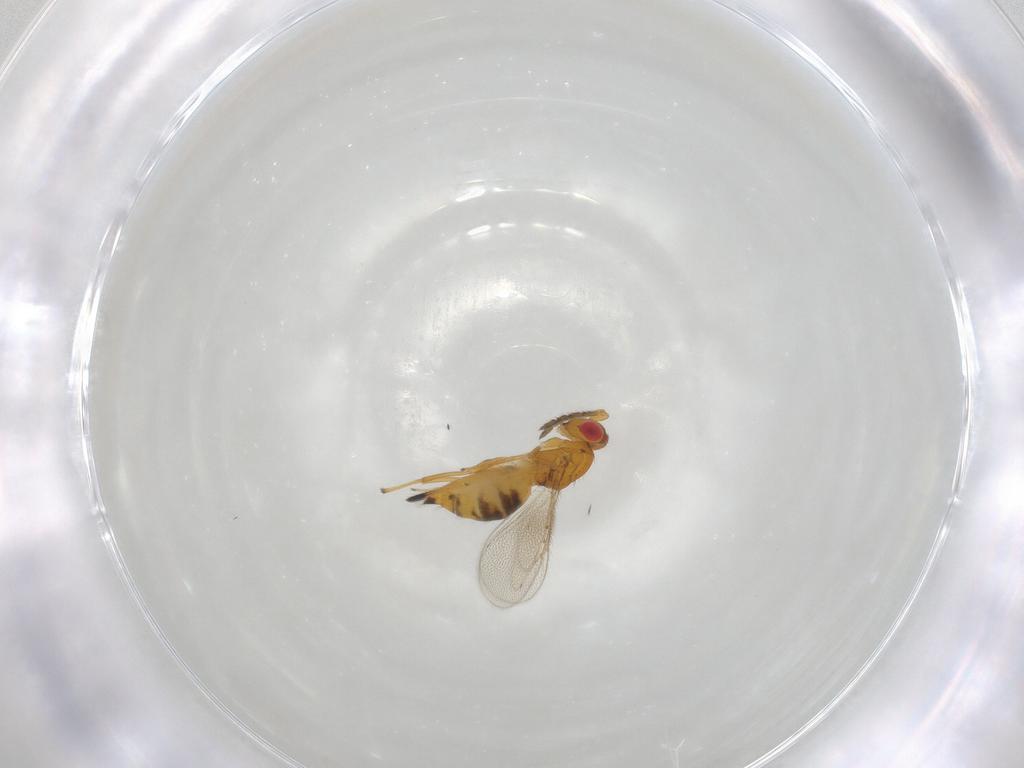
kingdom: Animalia
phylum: Arthropoda
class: Insecta
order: Hymenoptera
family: Eulophidae
